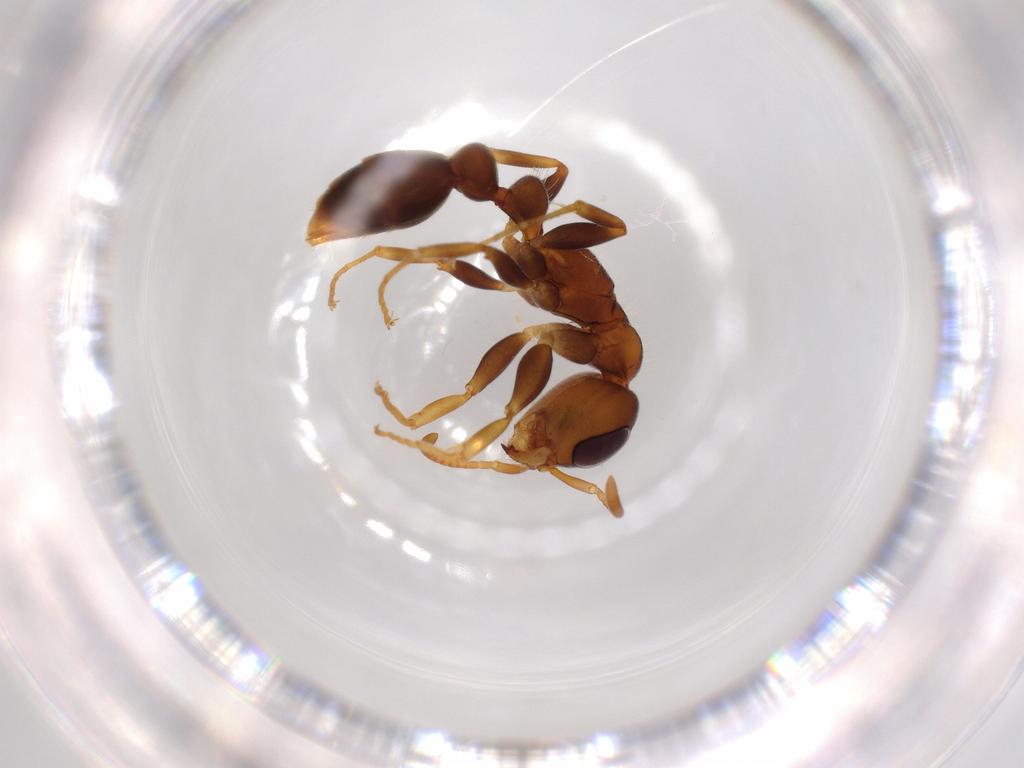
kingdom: Animalia
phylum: Arthropoda
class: Insecta
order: Hymenoptera
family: Formicidae
